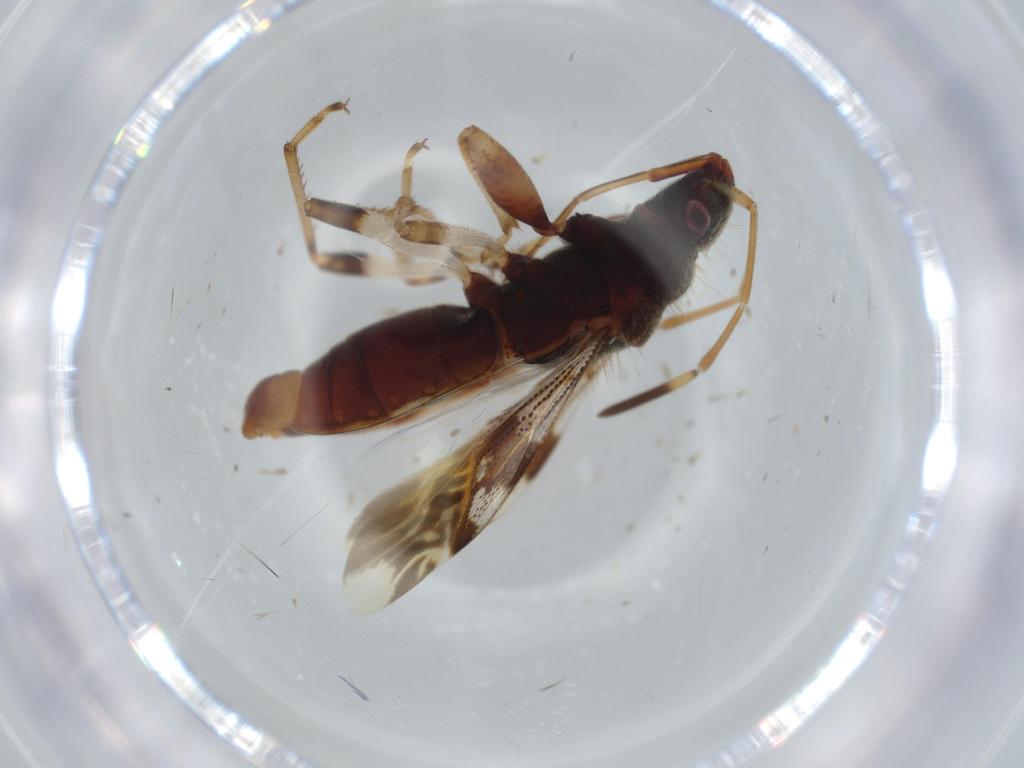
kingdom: Animalia
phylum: Arthropoda
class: Insecta
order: Hemiptera
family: Rhyparochromidae
